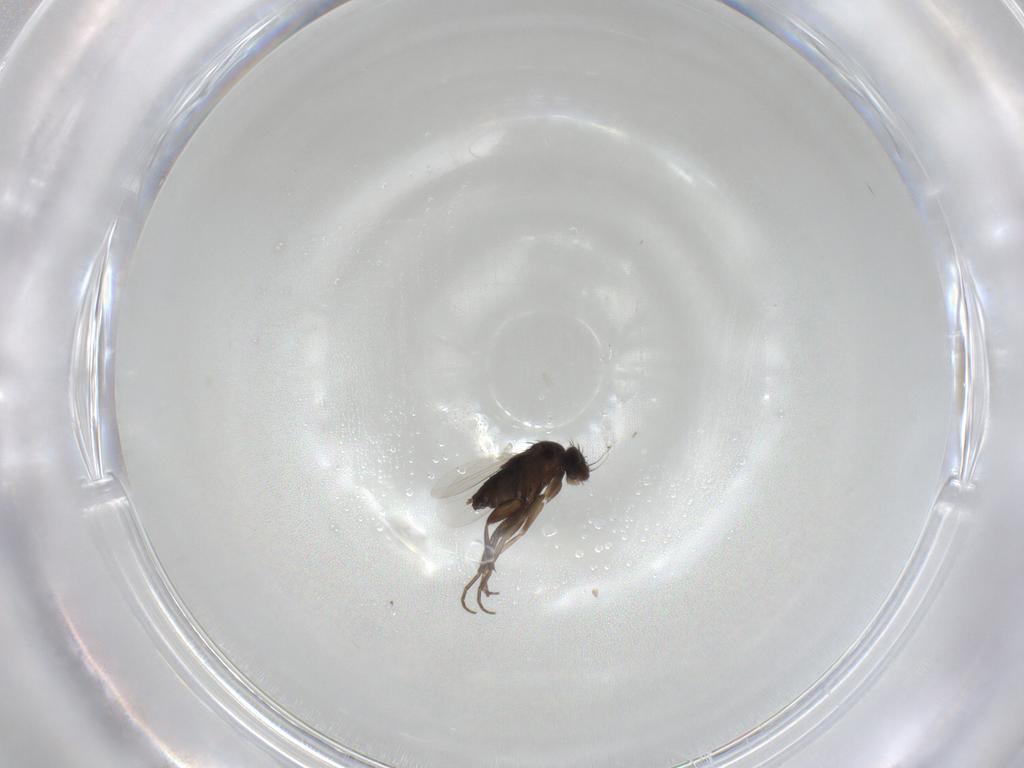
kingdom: Animalia
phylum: Arthropoda
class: Insecta
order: Diptera
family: Phoridae
